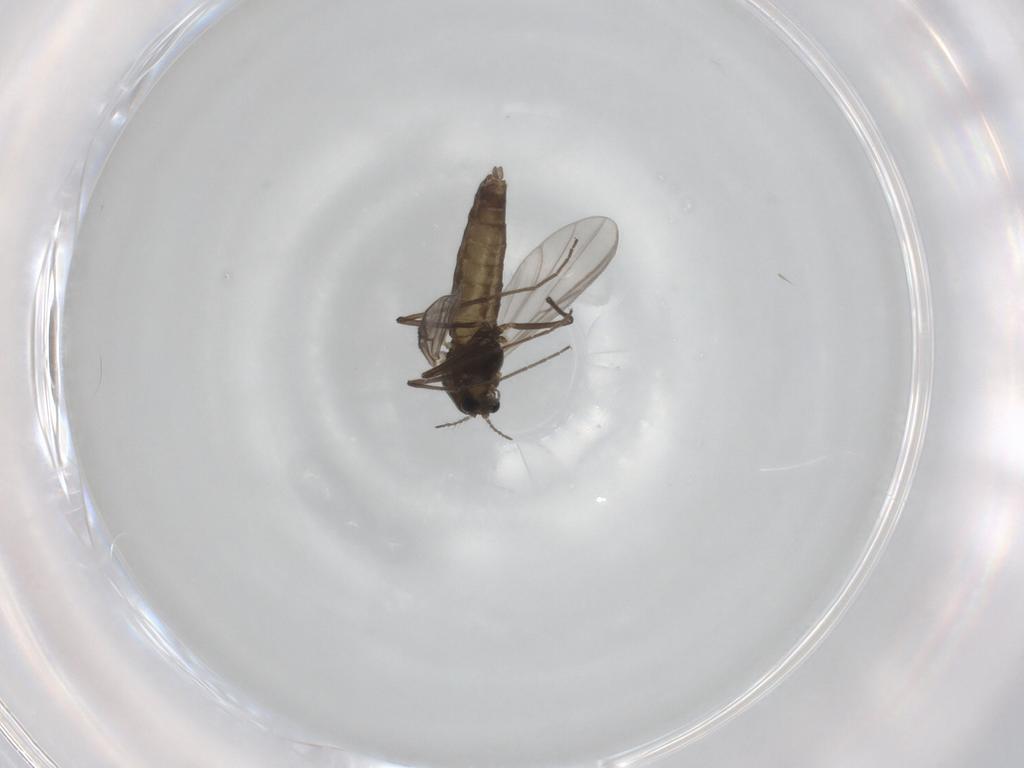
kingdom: Animalia
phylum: Arthropoda
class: Insecta
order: Diptera
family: Chironomidae
